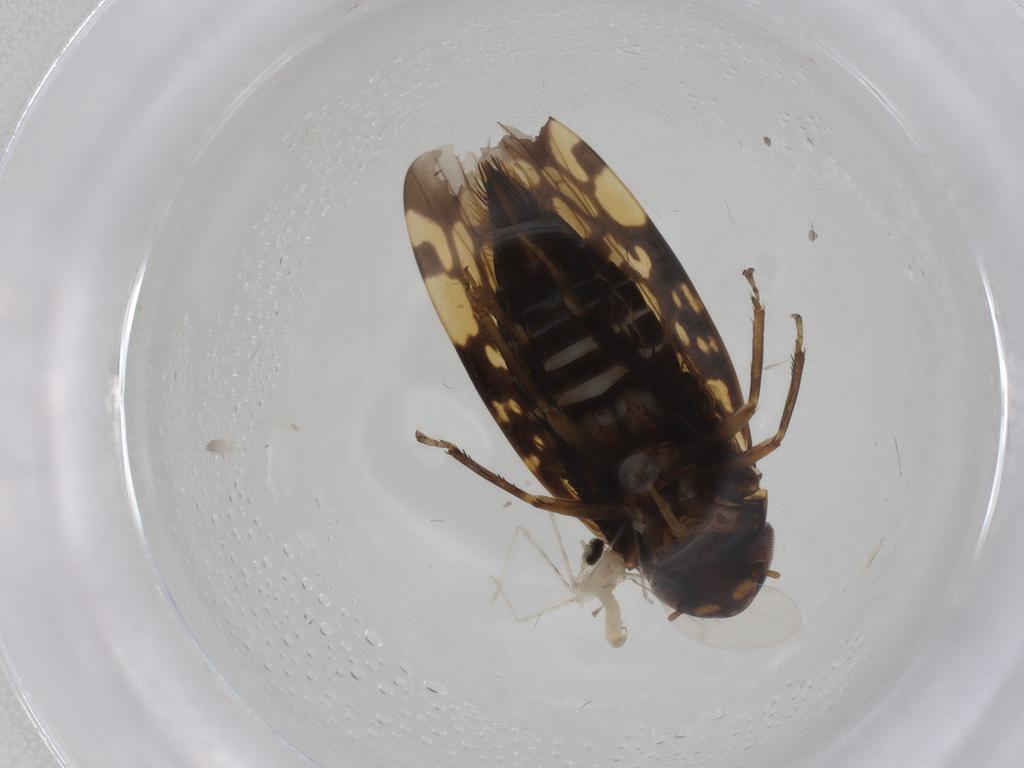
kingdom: Animalia
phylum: Arthropoda
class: Insecta
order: Hemiptera
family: Cicadellidae
